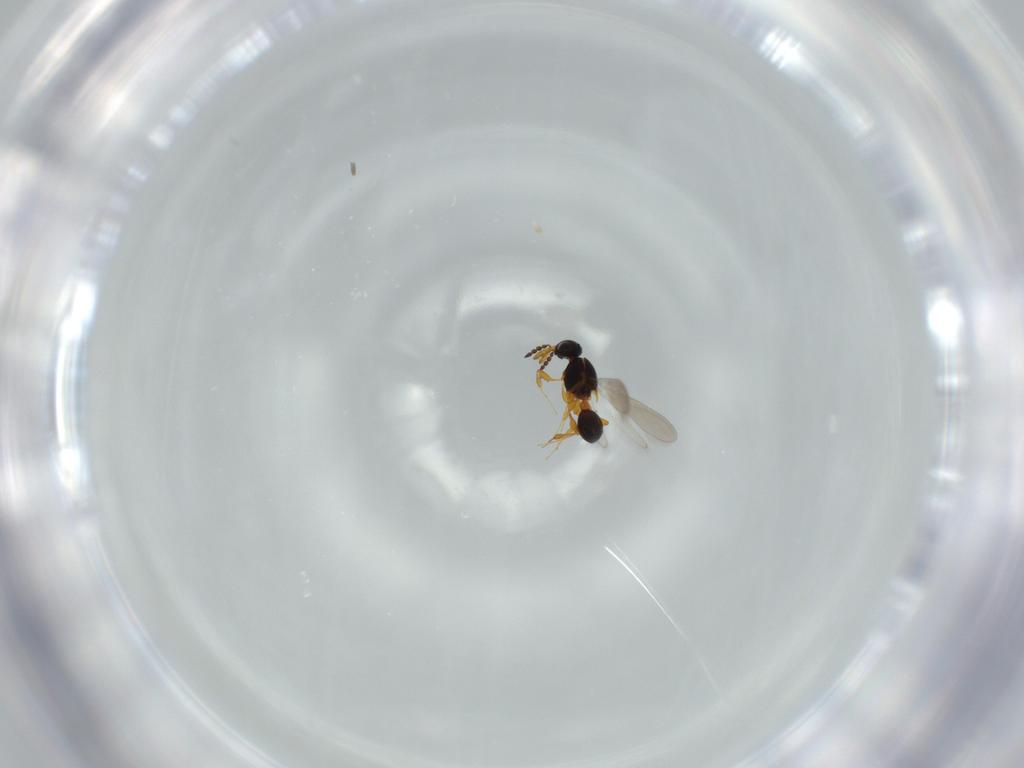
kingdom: Animalia
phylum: Arthropoda
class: Insecta
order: Hymenoptera
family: Platygastridae
